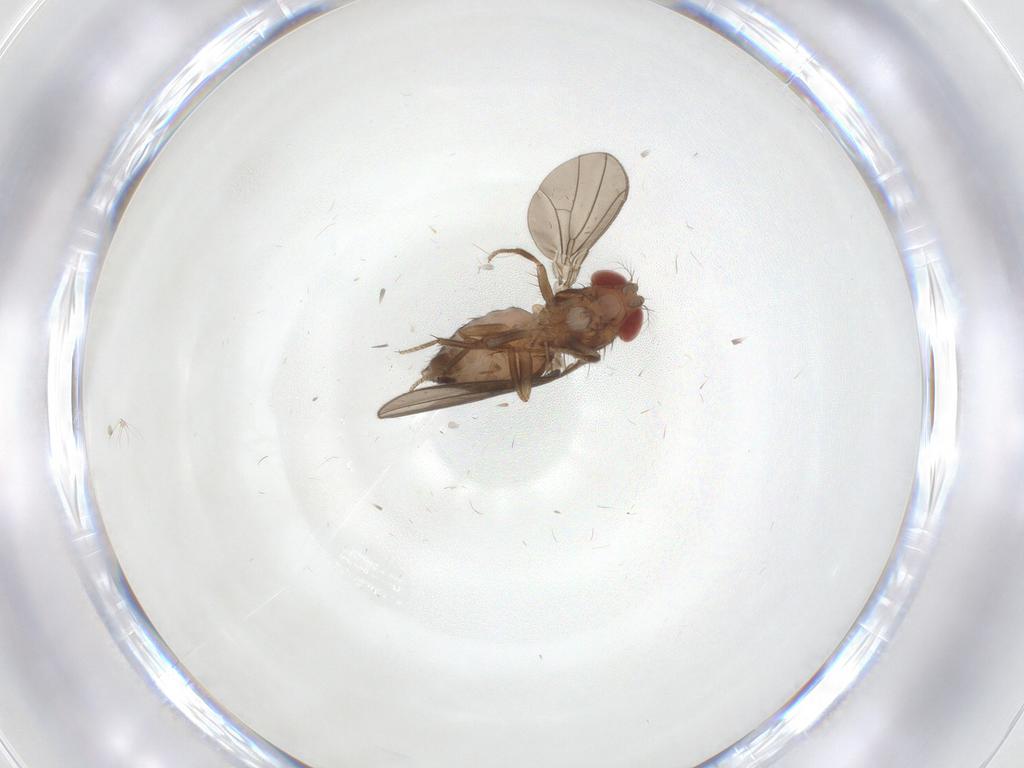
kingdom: Animalia
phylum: Arthropoda
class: Insecta
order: Diptera
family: Drosophilidae
